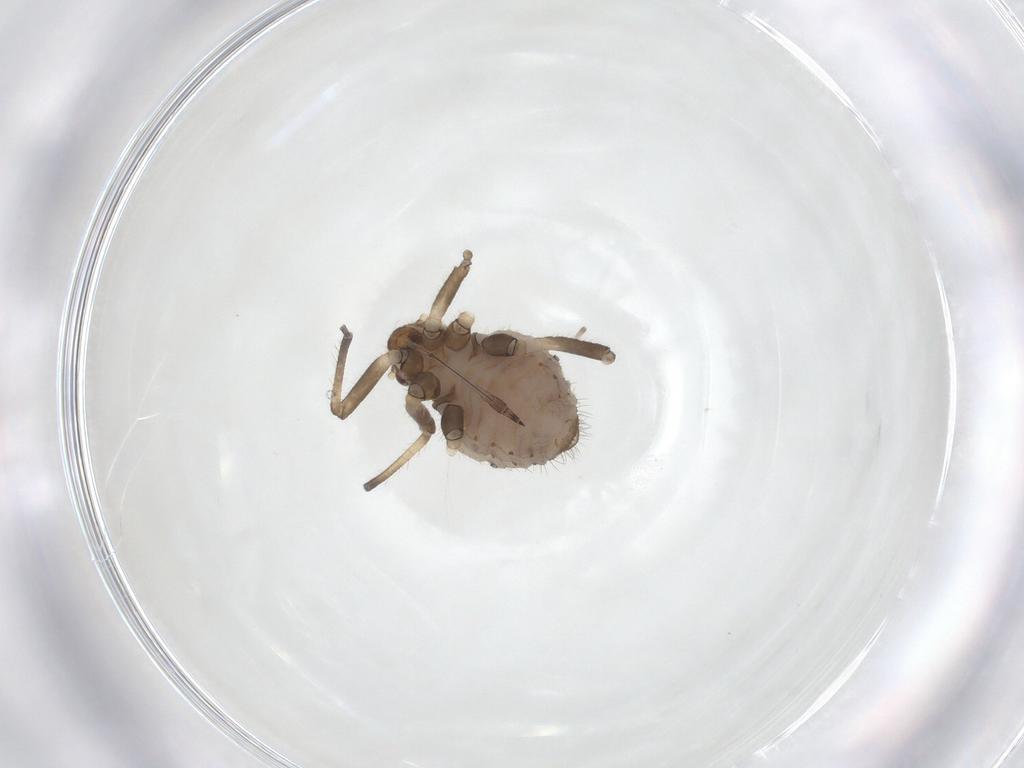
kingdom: Animalia
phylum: Arthropoda
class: Insecta
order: Hemiptera
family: Aphididae
